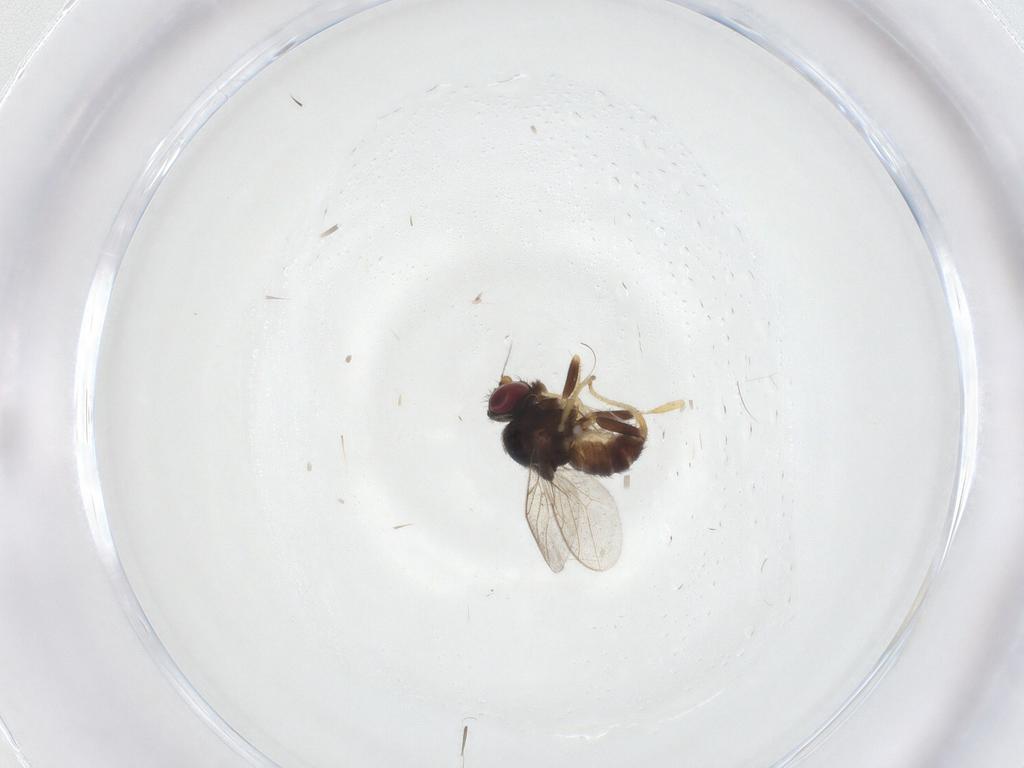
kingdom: Animalia
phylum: Arthropoda
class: Insecta
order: Diptera
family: Chloropidae
